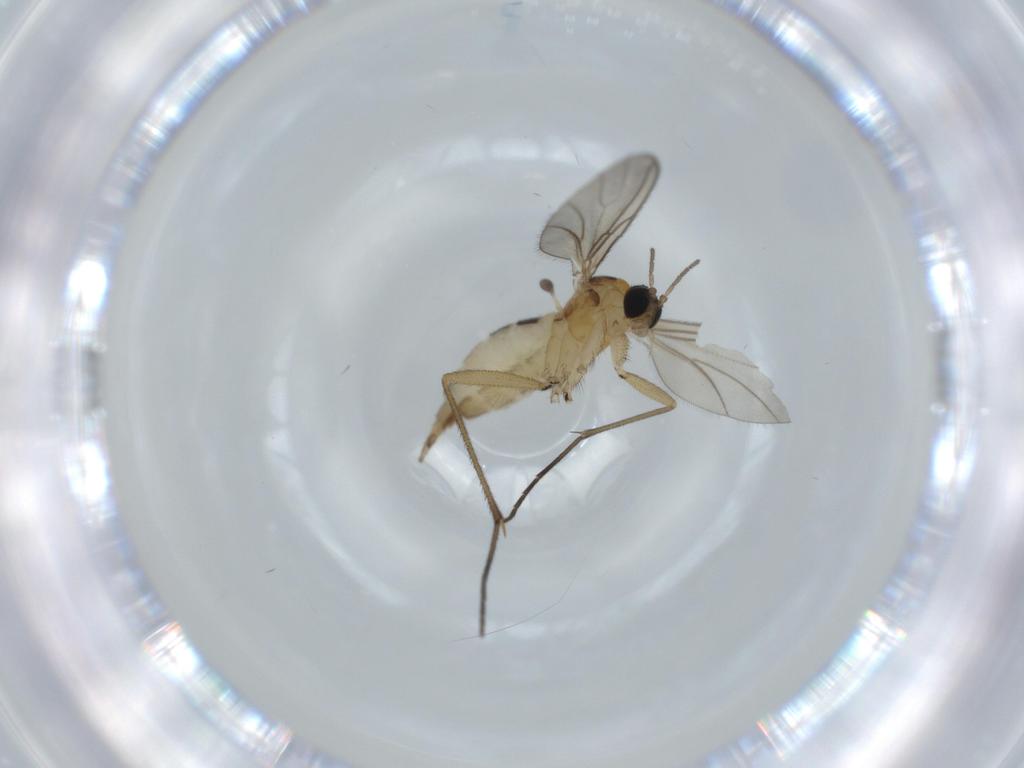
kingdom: Animalia
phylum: Arthropoda
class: Insecta
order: Diptera
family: Sciaridae
